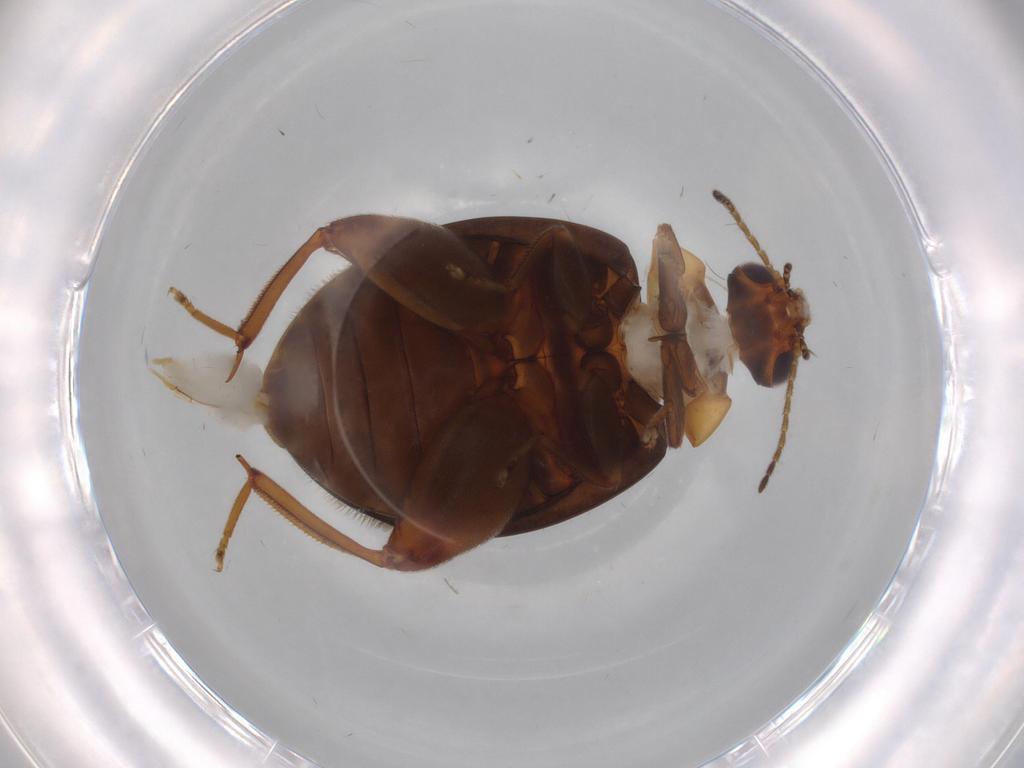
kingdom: Animalia
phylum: Arthropoda
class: Insecta
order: Coleoptera
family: Scirtidae
